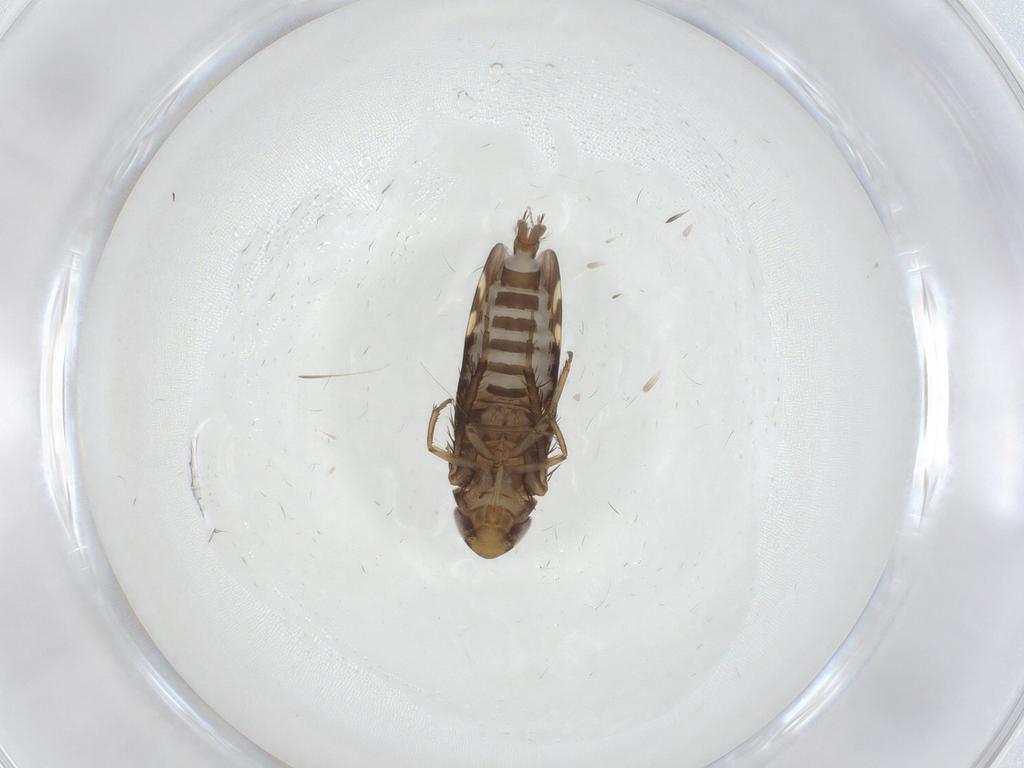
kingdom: Animalia
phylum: Arthropoda
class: Insecta
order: Hemiptera
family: Cicadellidae
